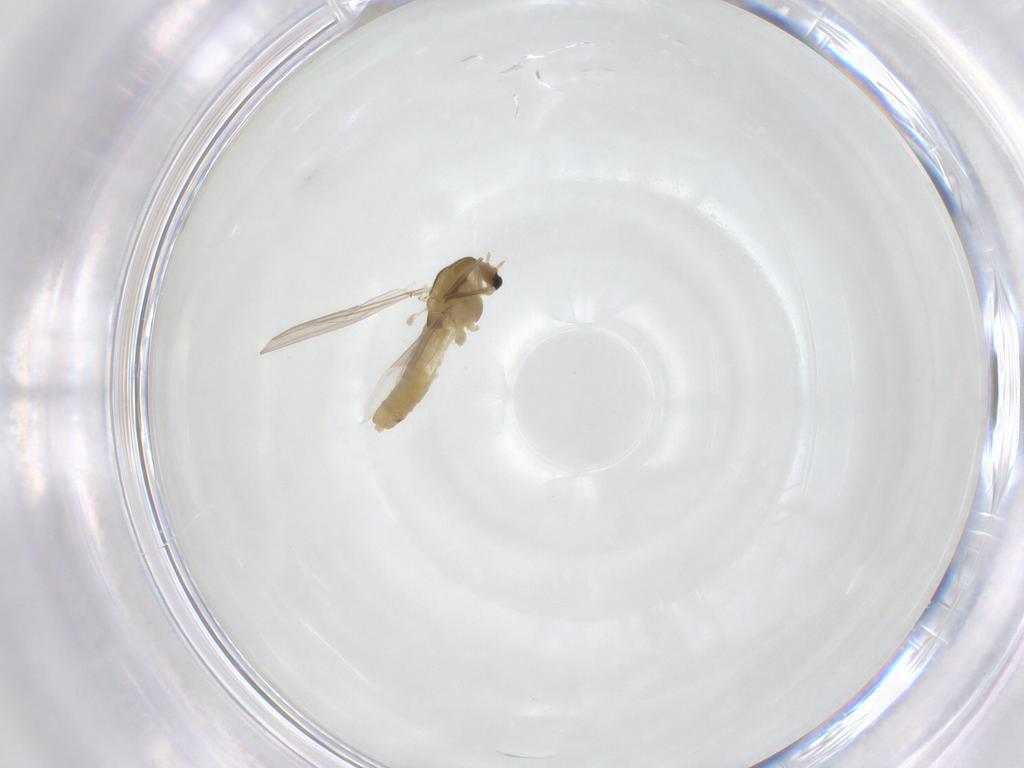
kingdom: Animalia
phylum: Arthropoda
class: Insecta
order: Diptera
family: Chironomidae
